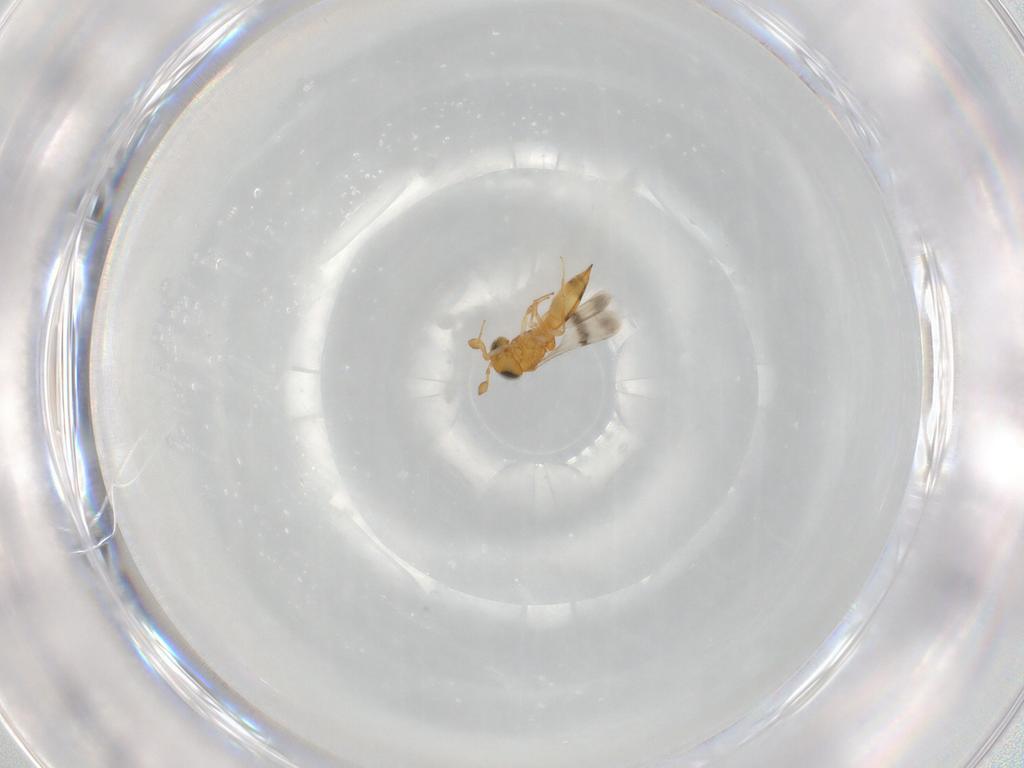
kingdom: Animalia
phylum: Arthropoda
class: Insecta
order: Hymenoptera
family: Scelionidae
